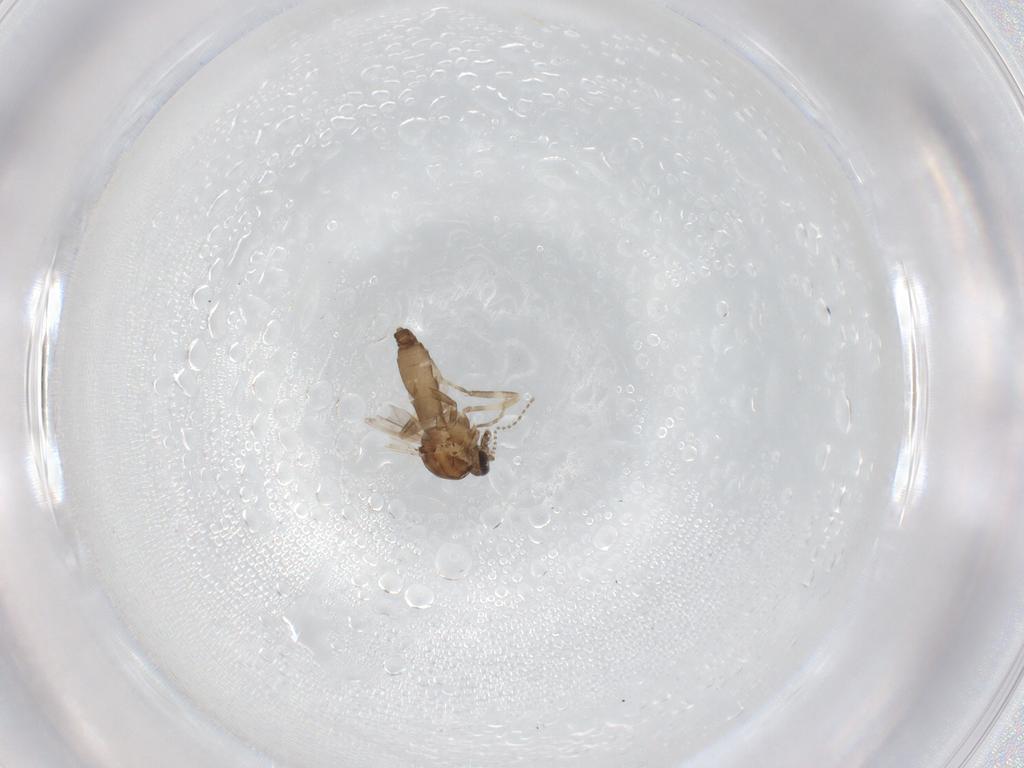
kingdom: Animalia
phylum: Arthropoda
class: Insecta
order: Diptera
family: Ceratopogonidae
